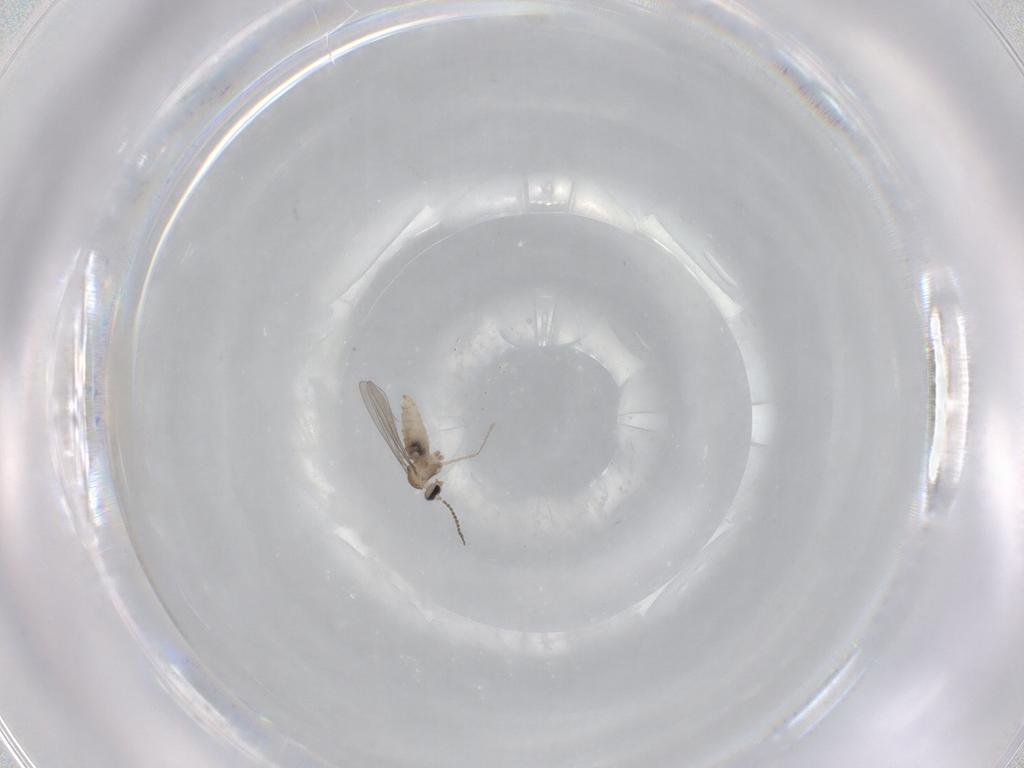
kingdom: Animalia
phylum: Arthropoda
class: Insecta
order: Diptera
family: Cecidomyiidae
